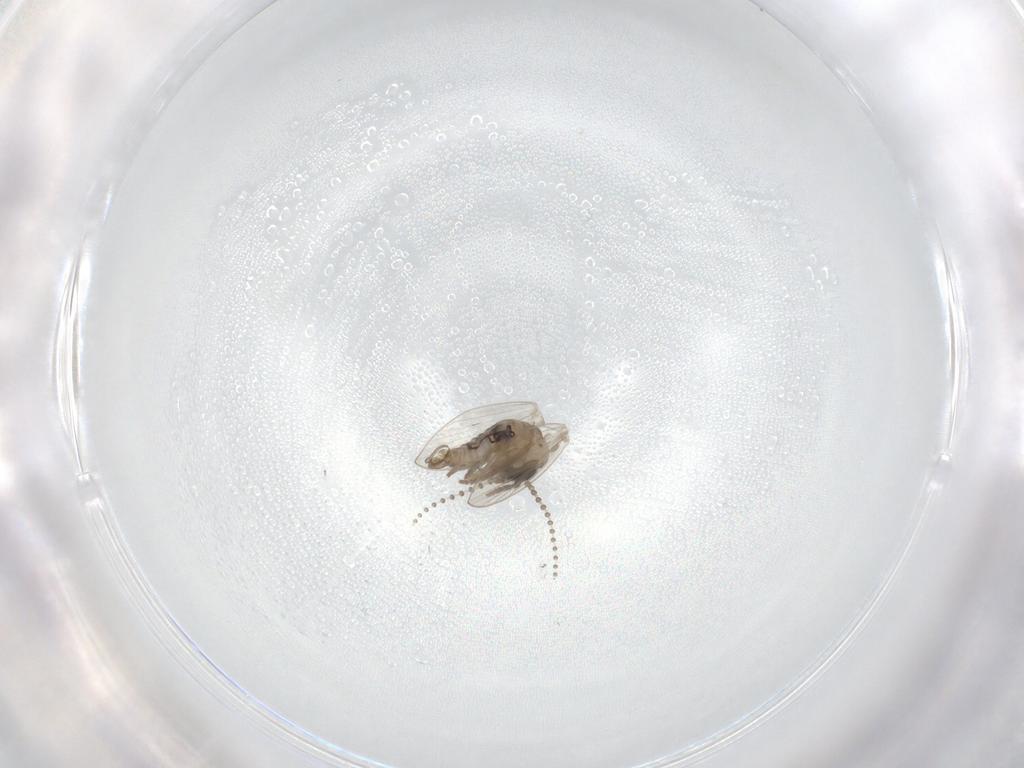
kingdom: Animalia
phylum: Arthropoda
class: Insecta
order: Diptera
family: Psychodidae
